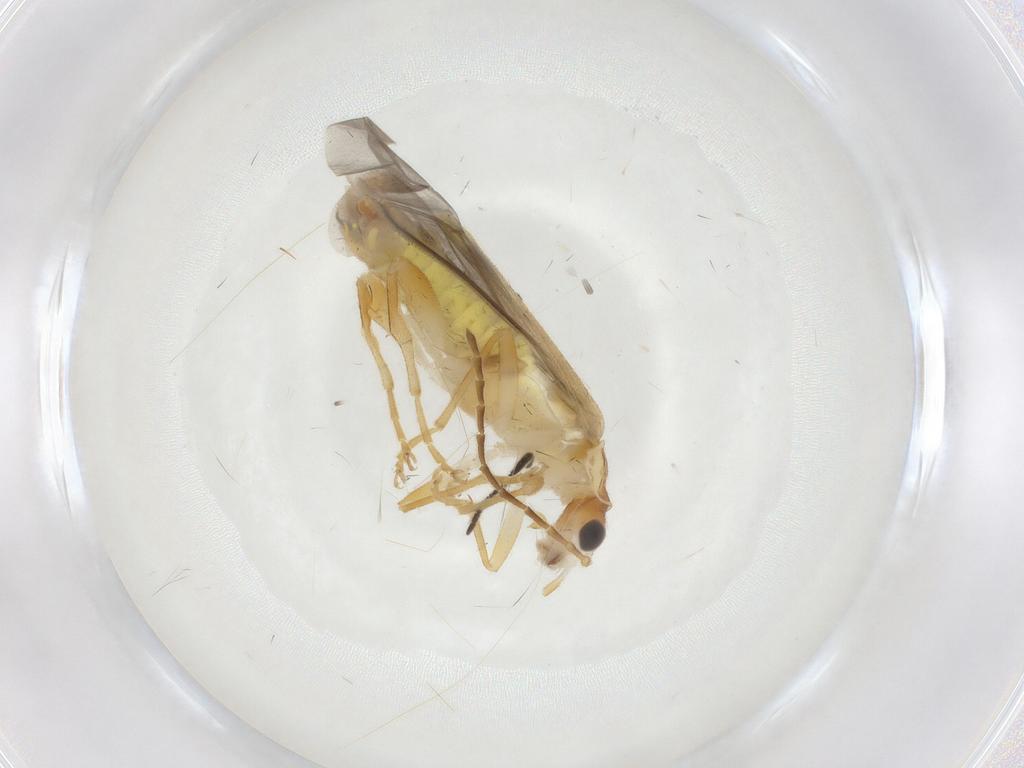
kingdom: Animalia
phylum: Arthropoda
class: Insecta
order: Coleoptera
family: Cantharidae
